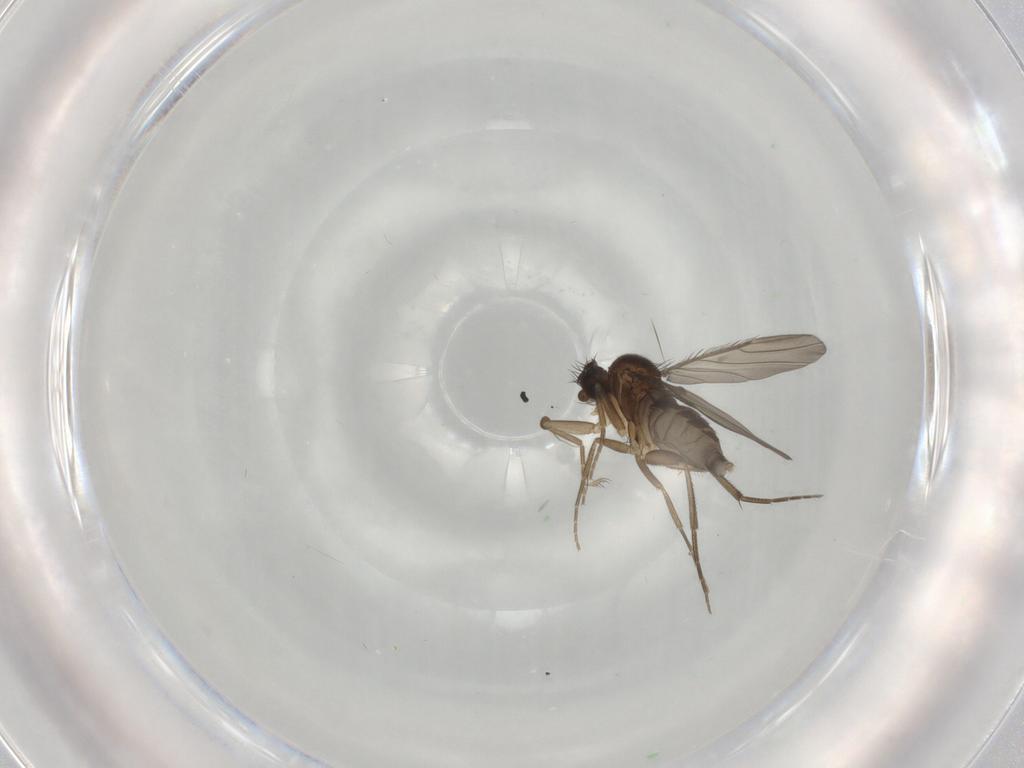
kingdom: Animalia
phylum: Arthropoda
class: Insecta
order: Diptera
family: Phoridae
